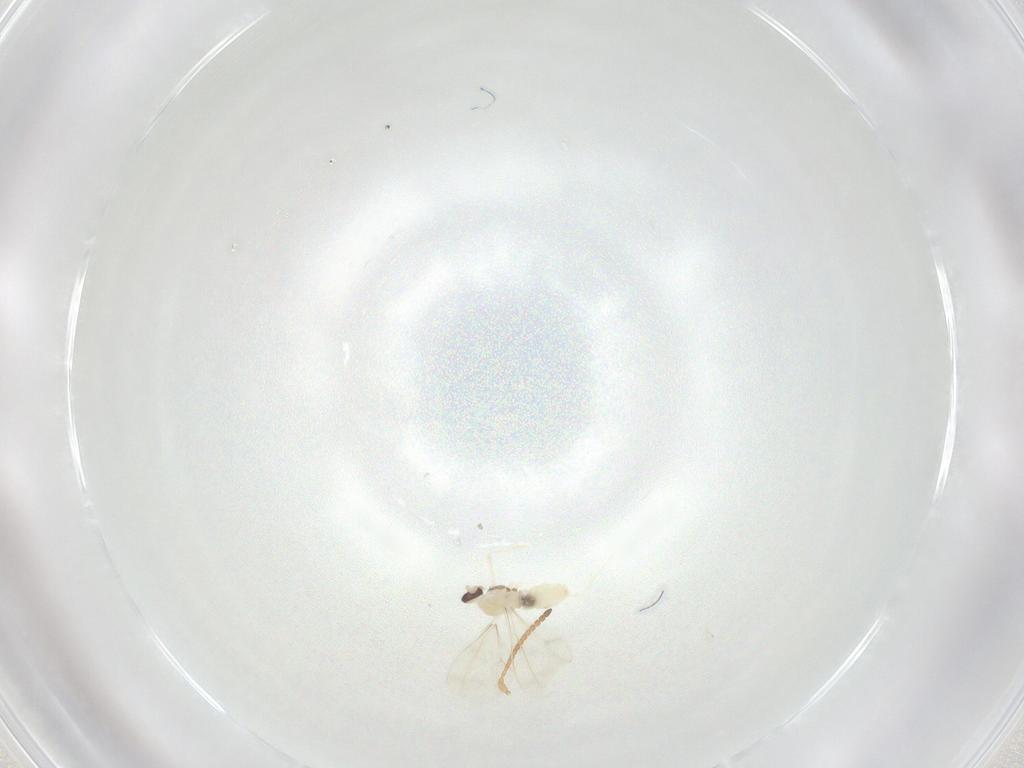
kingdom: Animalia
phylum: Arthropoda
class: Insecta
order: Diptera
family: Cecidomyiidae
